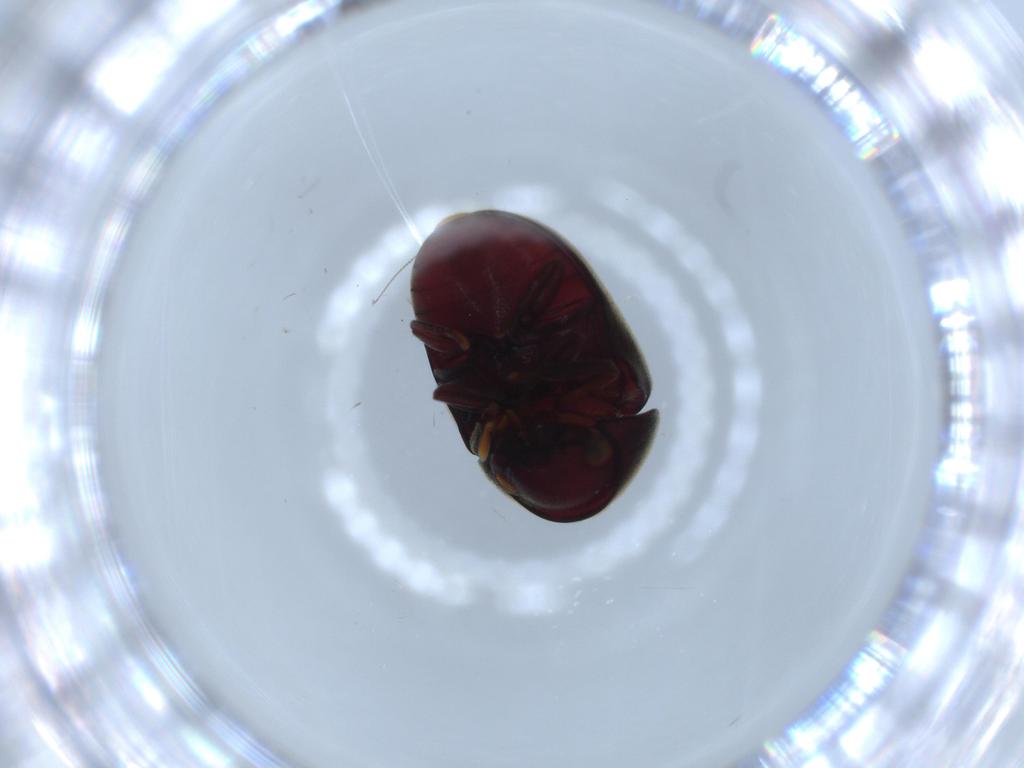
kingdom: Animalia
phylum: Arthropoda
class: Insecta
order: Coleoptera
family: Ptinidae
